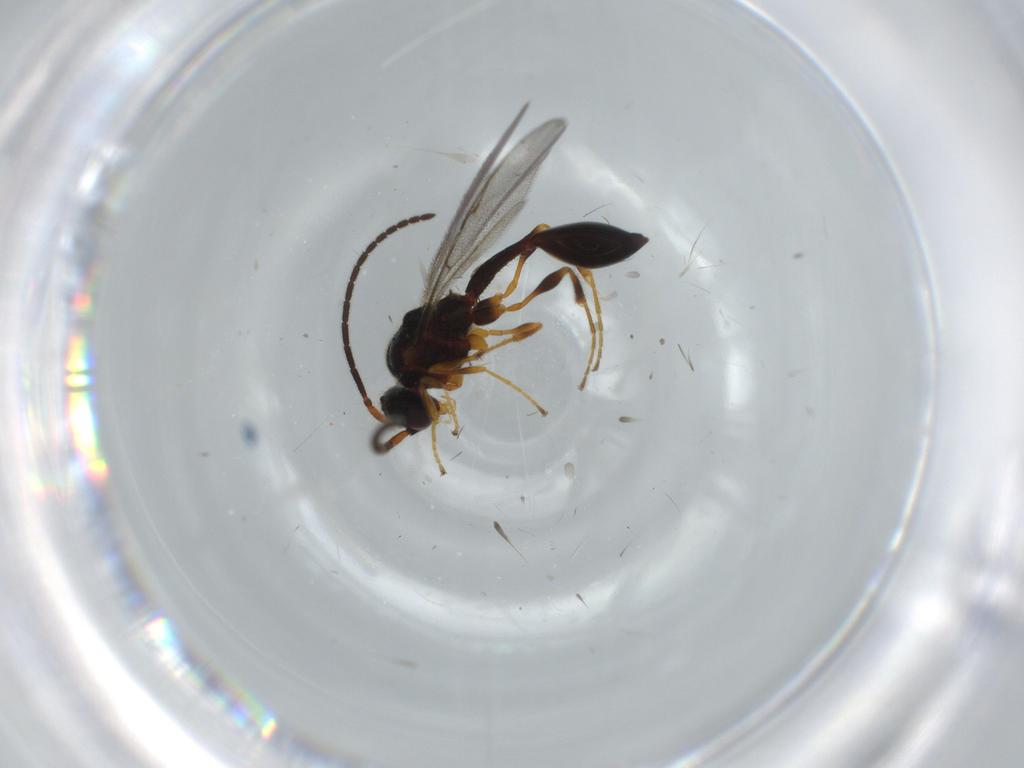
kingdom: Animalia
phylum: Arthropoda
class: Insecta
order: Hymenoptera
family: Diapriidae
